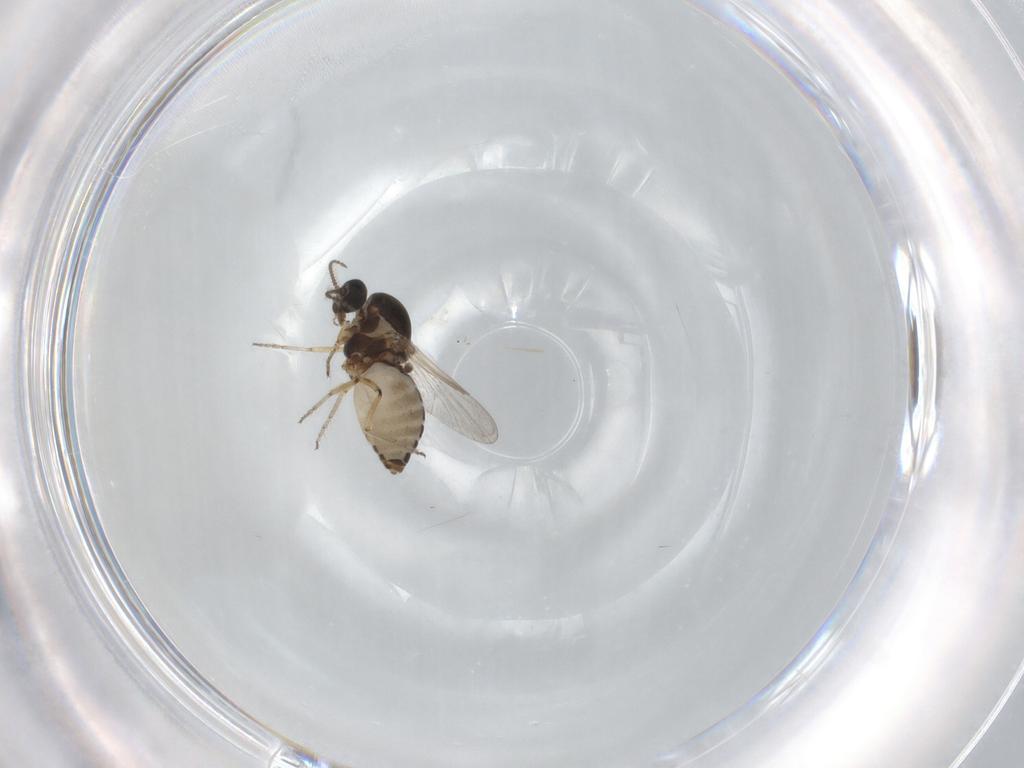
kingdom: Animalia
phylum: Arthropoda
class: Insecta
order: Diptera
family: Ceratopogonidae
